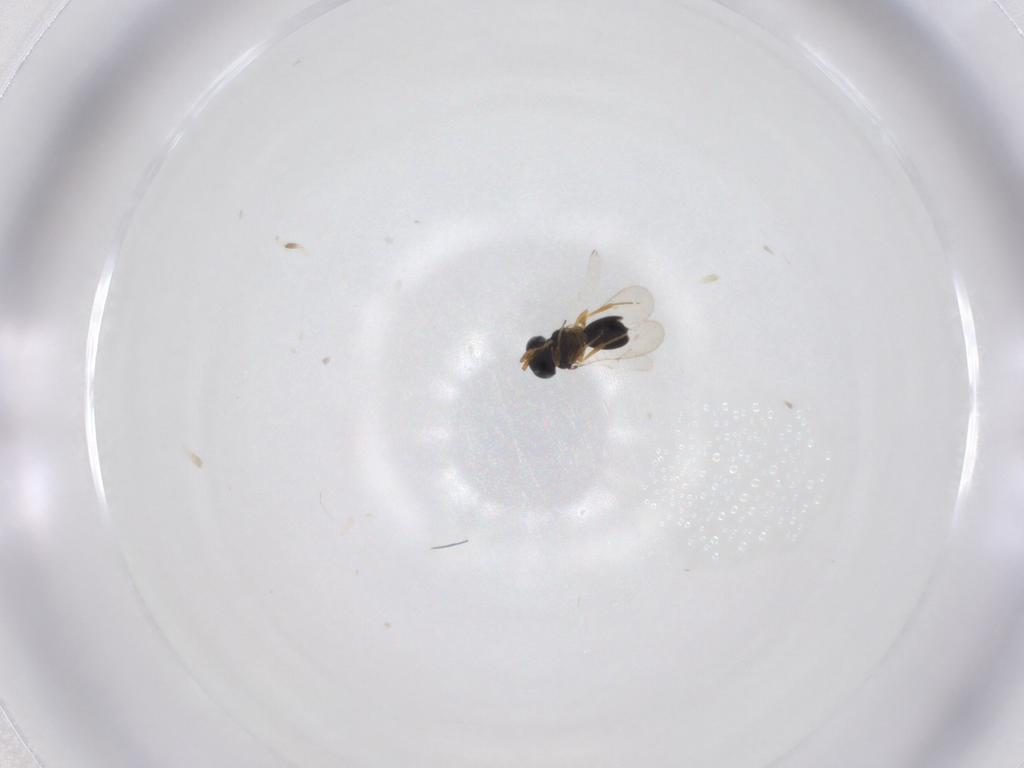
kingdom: Animalia
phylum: Arthropoda
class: Insecta
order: Hymenoptera
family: Scelionidae
